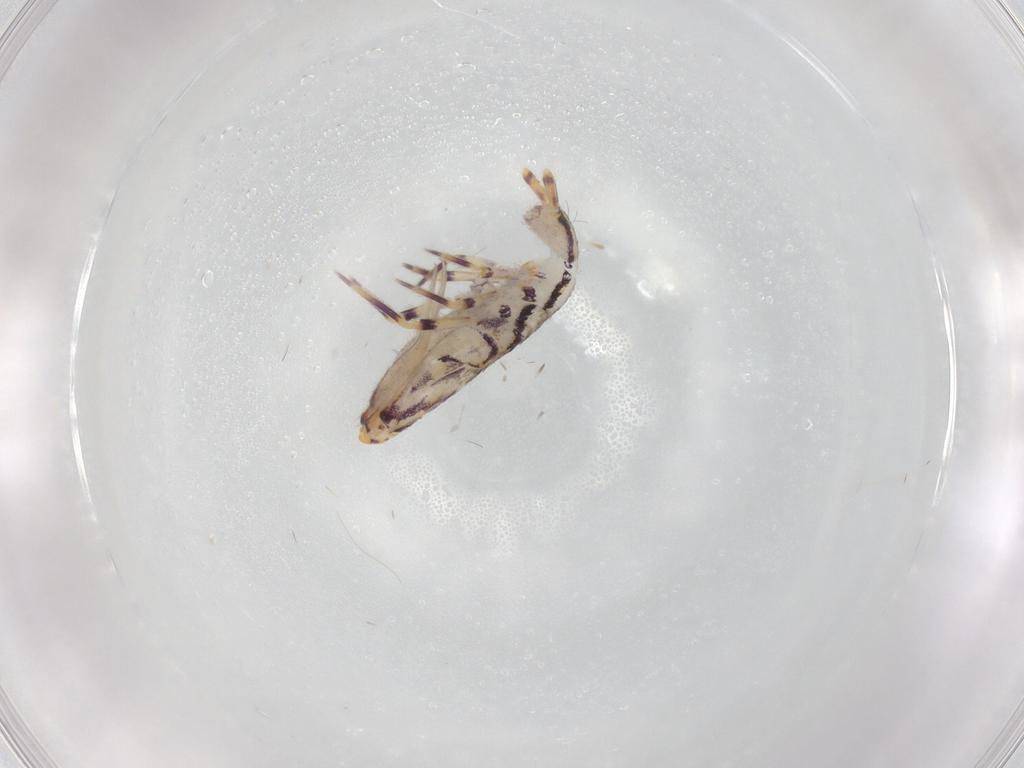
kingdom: Animalia
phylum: Arthropoda
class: Collembola
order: Entomobryomorpha
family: Entomobryidae
